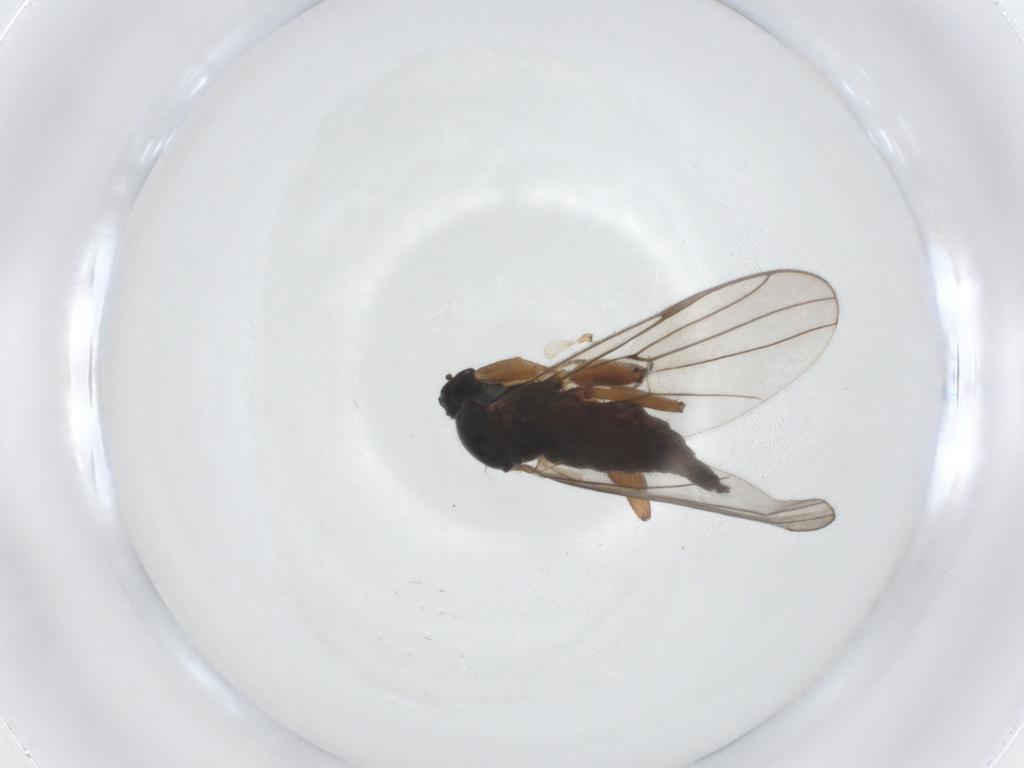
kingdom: Animalia
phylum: Arthropoda
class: Insecta
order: Diptera
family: Hybotidae
